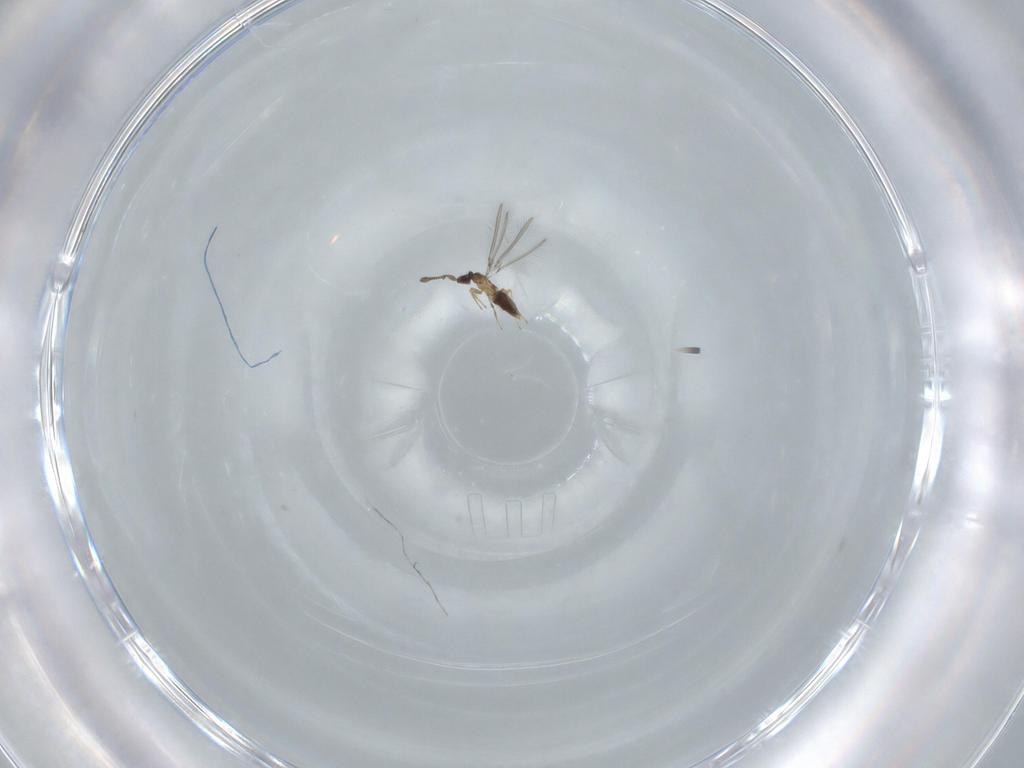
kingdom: Animalia
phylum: Arthropoda
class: Insecta
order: Hymenoptera
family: Mymaridae
